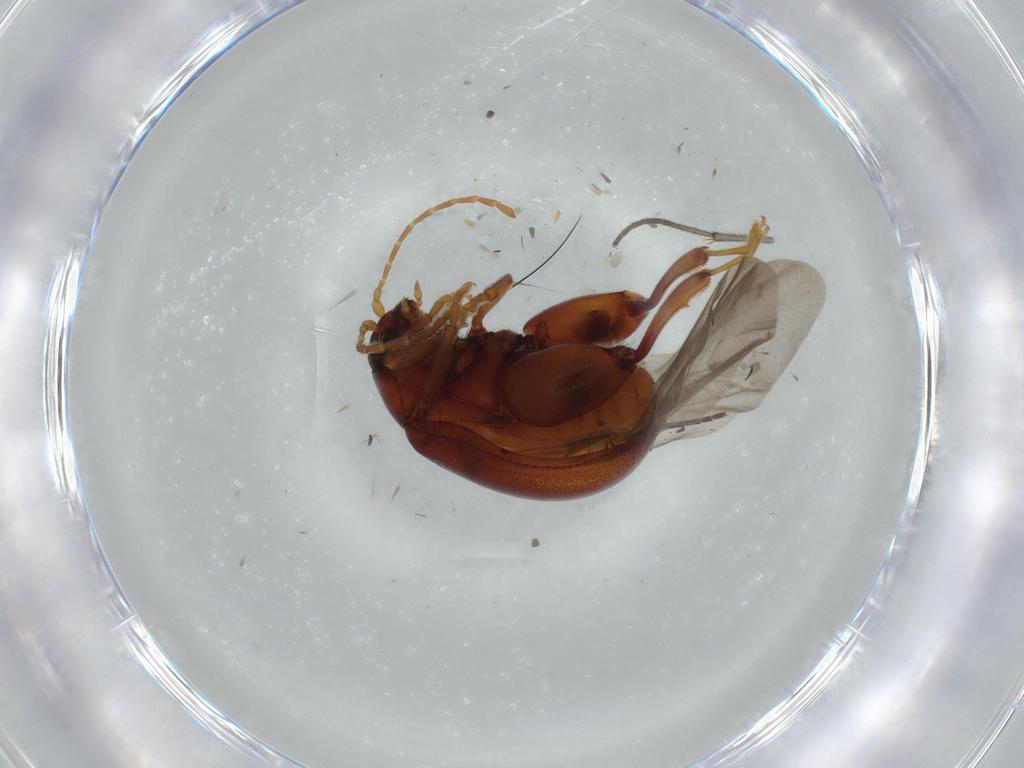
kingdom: Animalia
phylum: Arthropoda
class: Insecta
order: Coleoptera
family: Chrysomelidae
